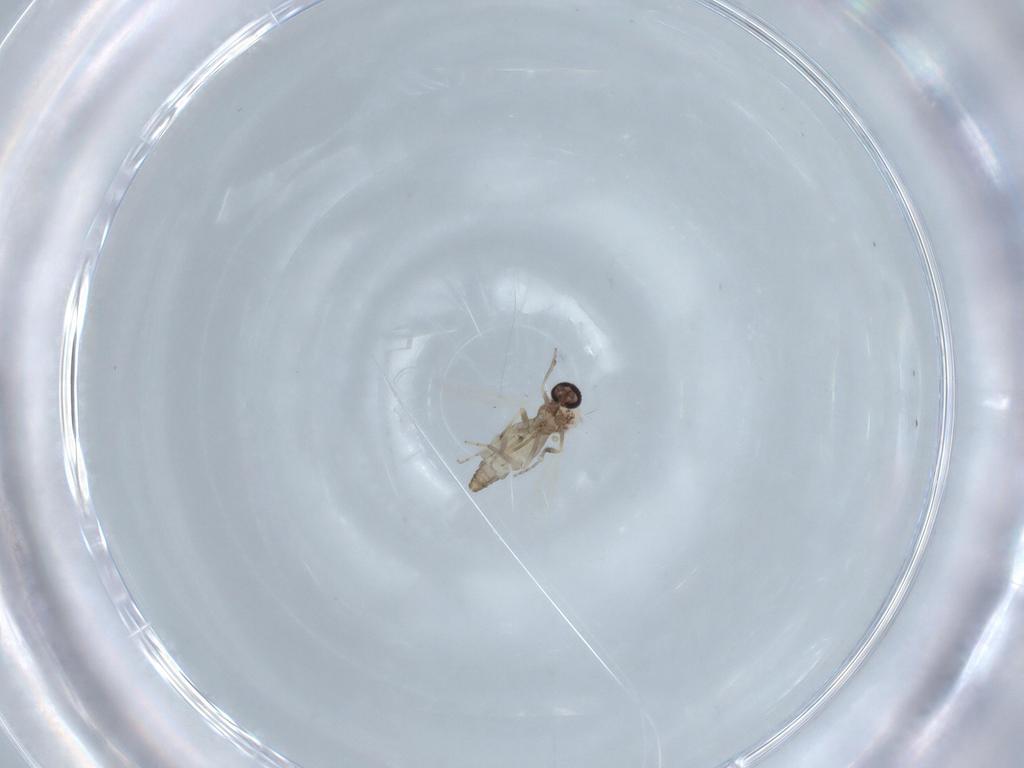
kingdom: Animalia
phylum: Arthropoda
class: Insecta
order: Diptera
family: Ceratopogonidae
